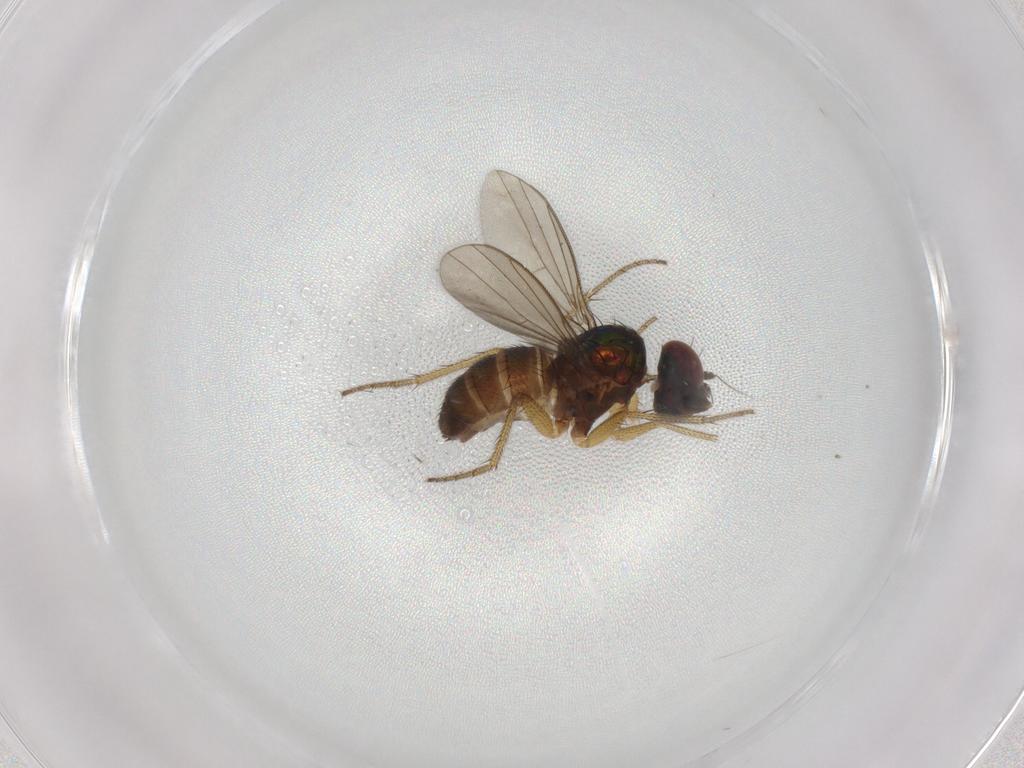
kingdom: Animalia
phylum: Arthropoda
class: Insecta
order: Diptera
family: Chironomidae
